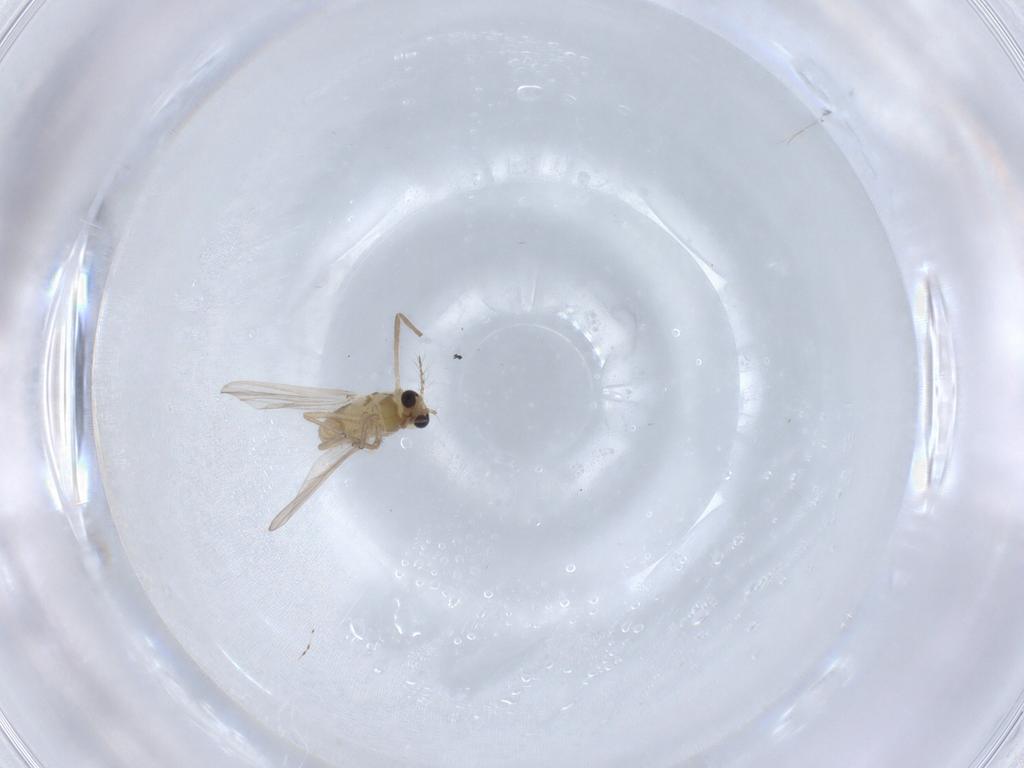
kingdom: Animalia
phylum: Arthropoda
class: Insecta
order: Diptera
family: Chironomidae
